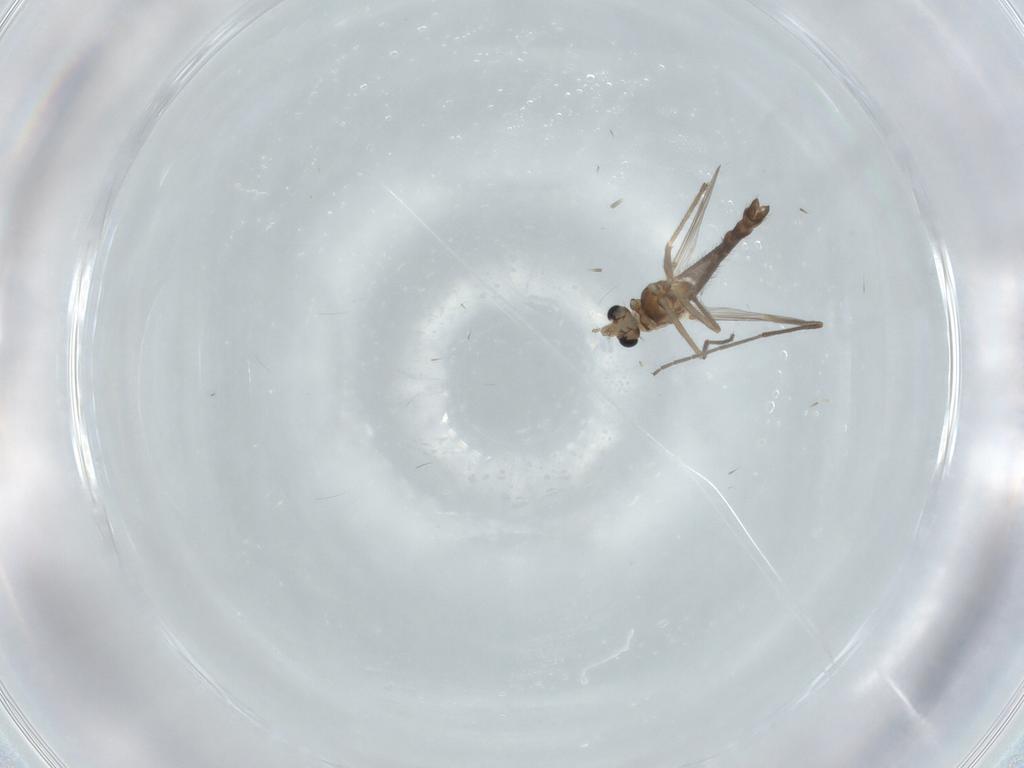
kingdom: Animalia
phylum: Arthropoda
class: Insecta
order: Diptera
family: Chironomidae
